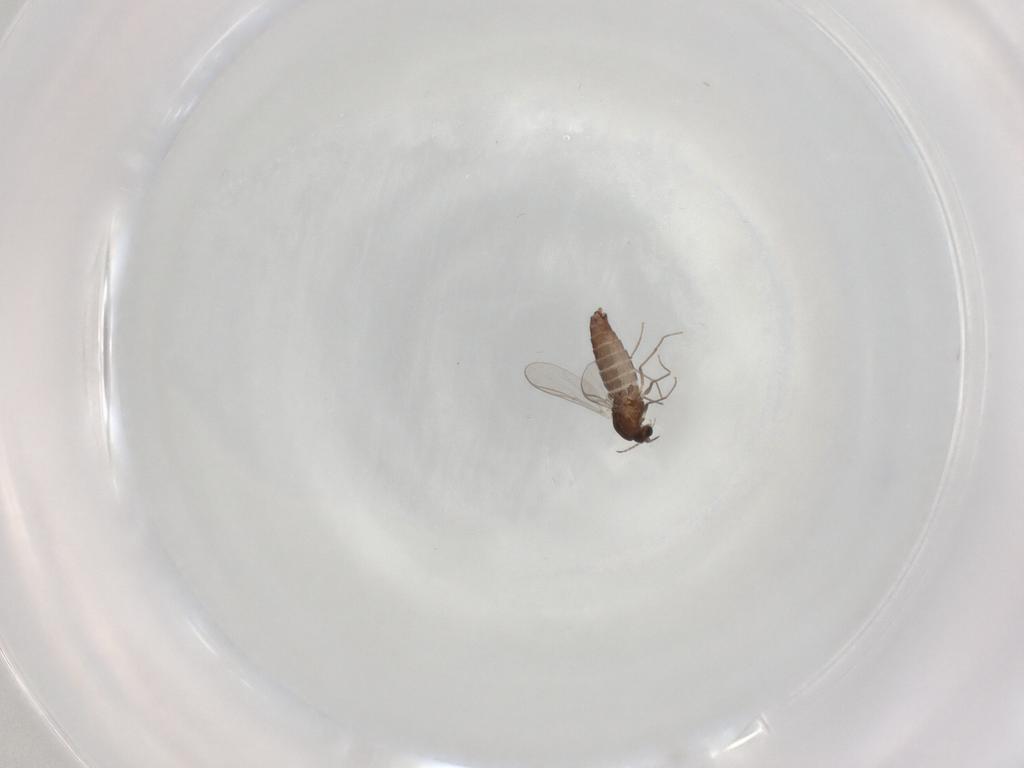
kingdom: Animalia
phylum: Arthropoda
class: Insecta
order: Diptera
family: Chironomidae
